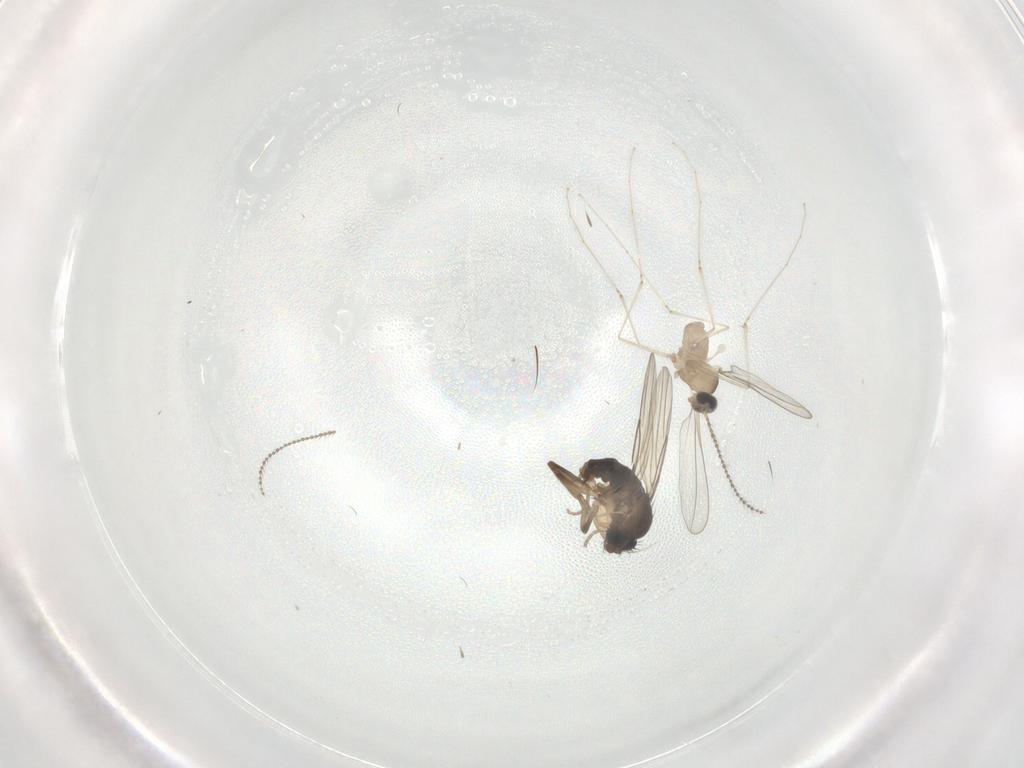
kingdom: Animalia
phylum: Arthropoda
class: Insecta
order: Diptera
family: Phoridae
